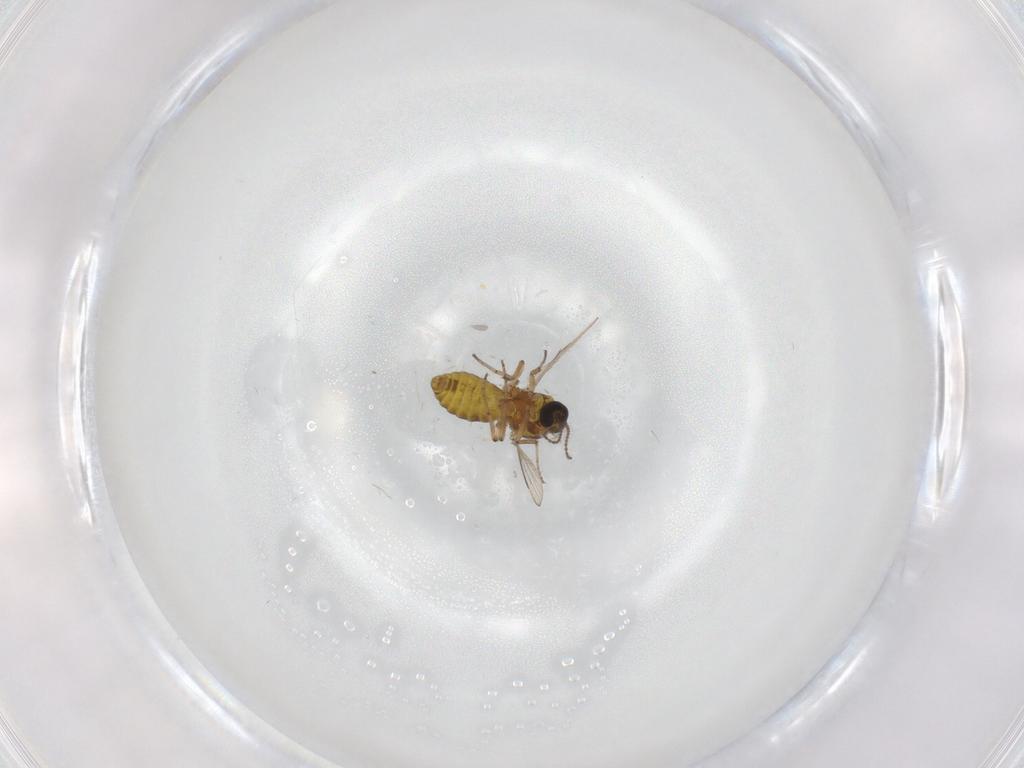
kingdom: Animalia
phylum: Arthropoda
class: Insecta
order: Diptera
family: Ceratopogonidae
